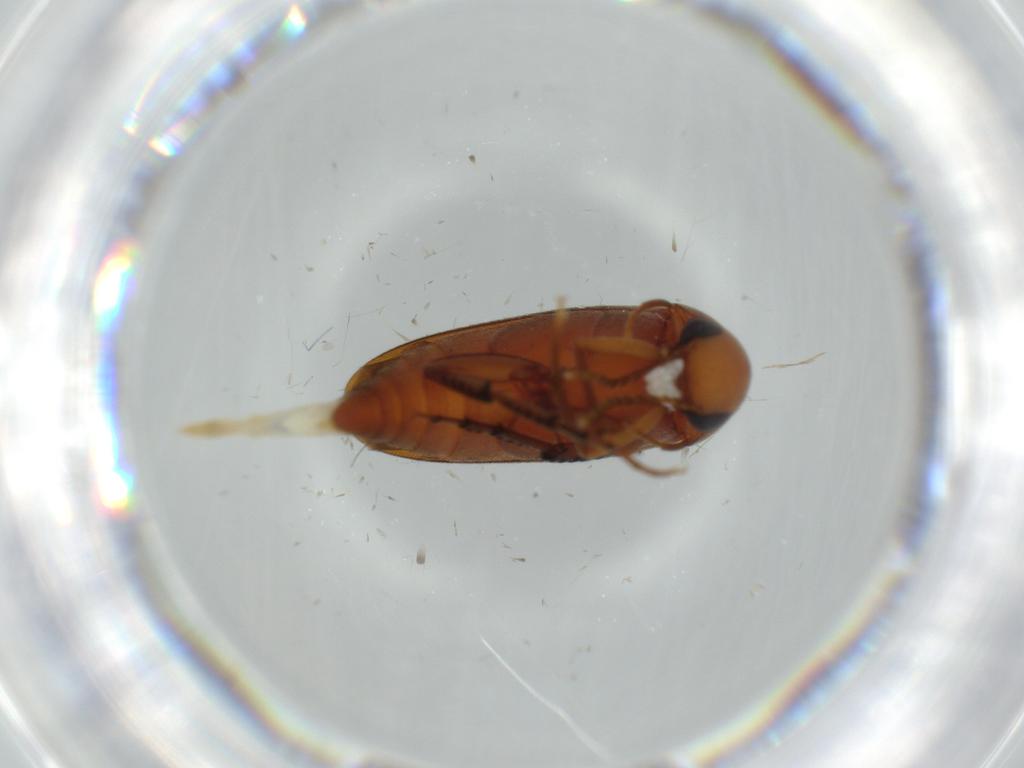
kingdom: Animalia
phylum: Arthropoda
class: Insecta
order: Coleoptera
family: Mordellidae
